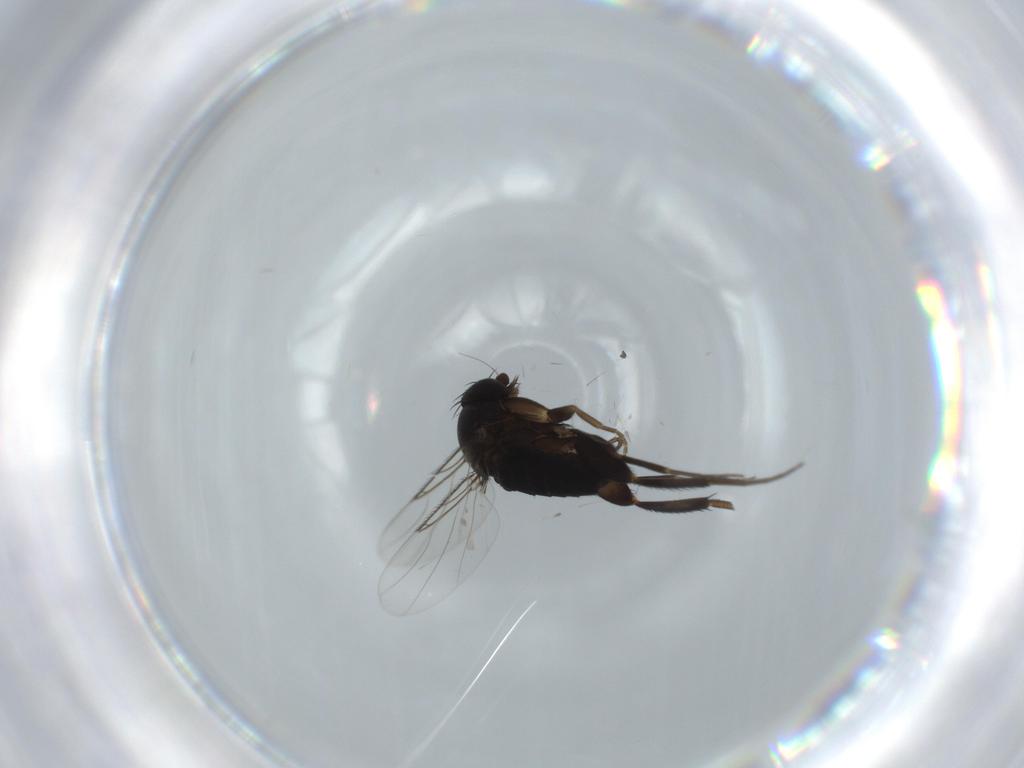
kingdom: Animalia
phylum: Arthropoda
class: Insecta
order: Diptera
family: Phoridae
